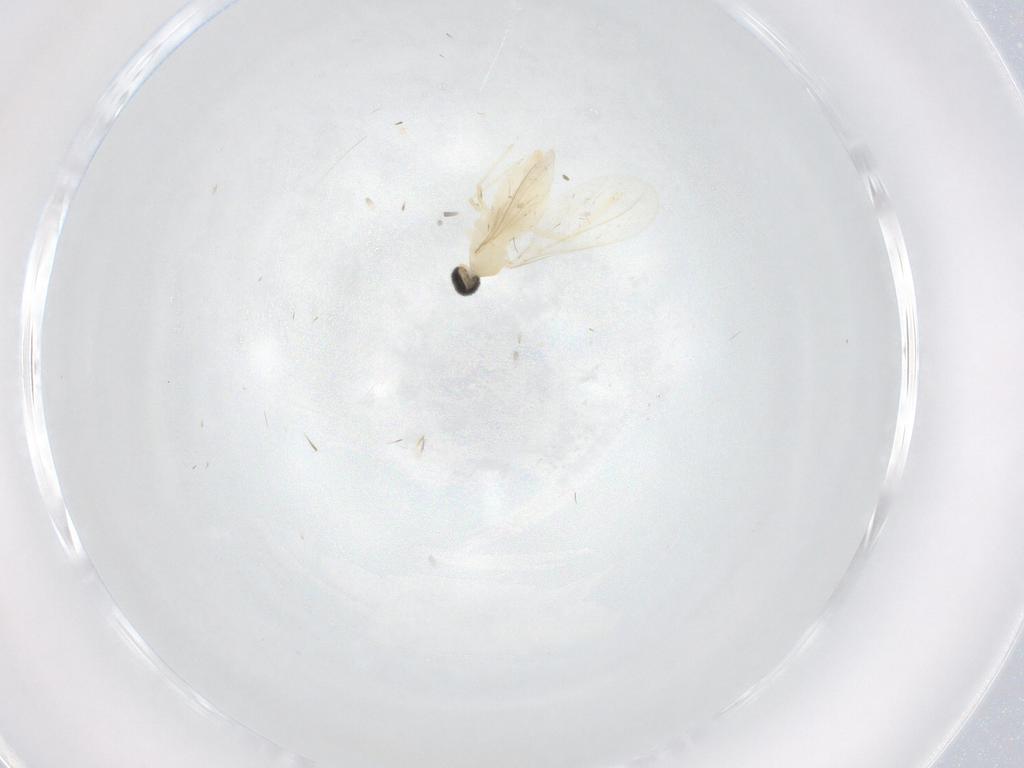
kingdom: Animalia
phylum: Arthropoda
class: Insecta
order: Diptera
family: Cecidomyiidae
